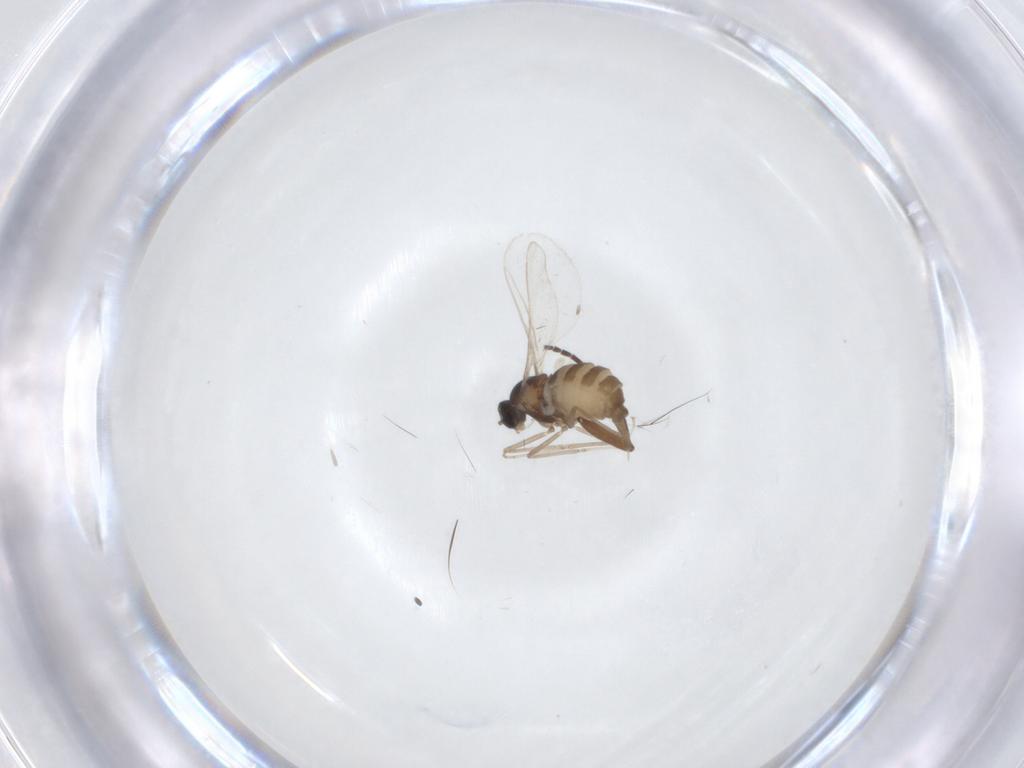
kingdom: Animalia
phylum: Arthropoda
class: Insecta
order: Diptera
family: Cecidomyiidae
